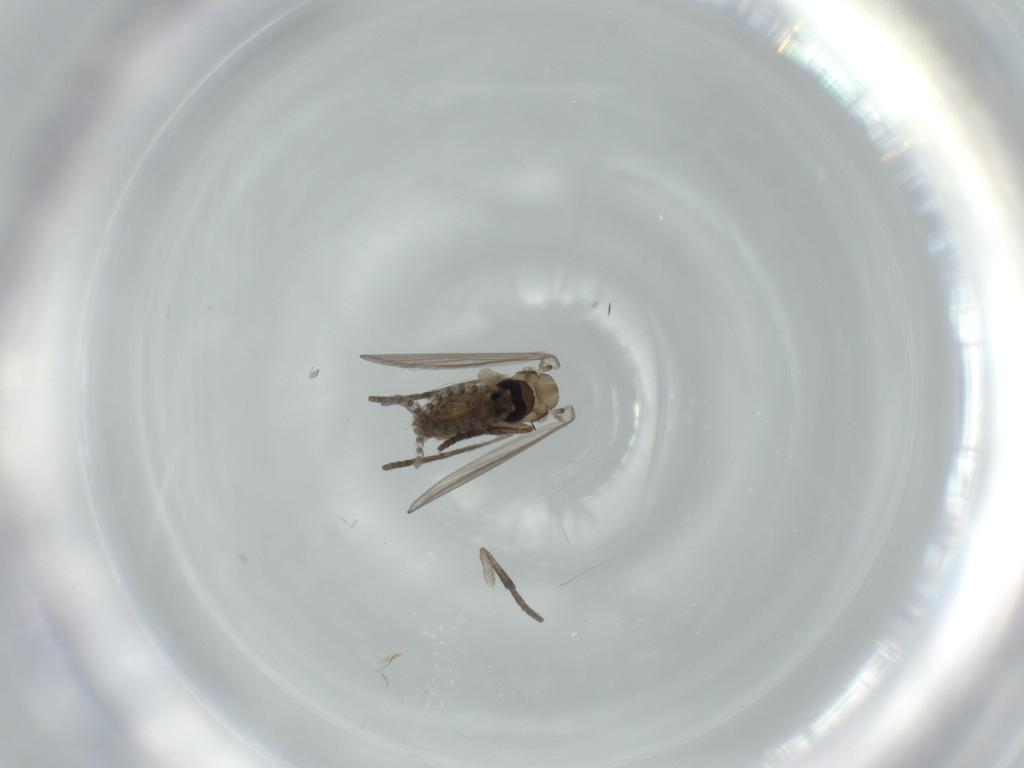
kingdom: Animalia
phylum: Arthropoda
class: Insecta
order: Diptera
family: Psychodidae
